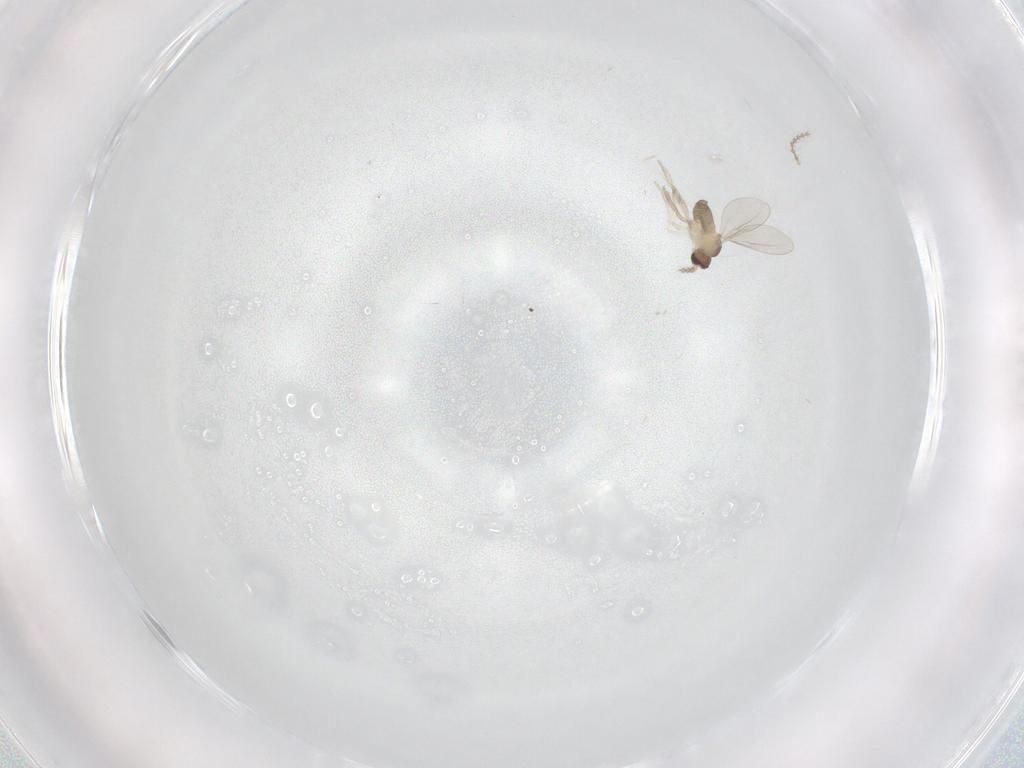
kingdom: Animalia
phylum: Arthropoda
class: Insecta
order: Diptera
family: Cecidomyiidae
